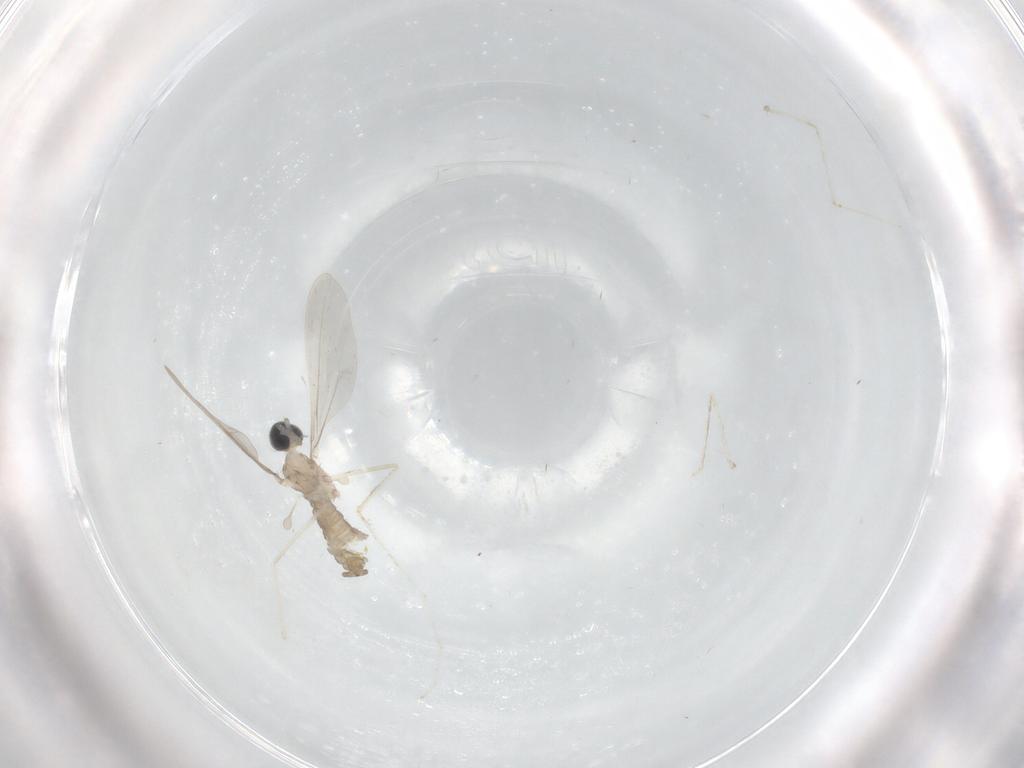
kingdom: Animalia
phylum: Arthropoda
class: Insecta
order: Diptera
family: Cecidomyiidae
